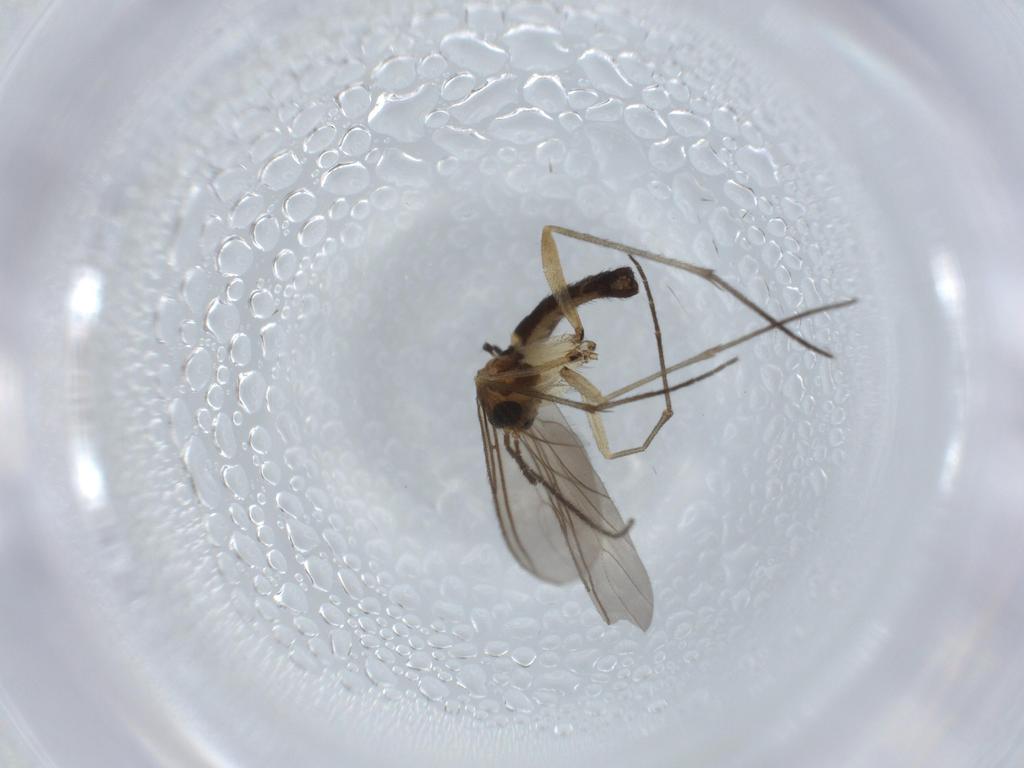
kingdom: Animalia
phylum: Arthropoda
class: Insecta
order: Diptera
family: Sciaridae
